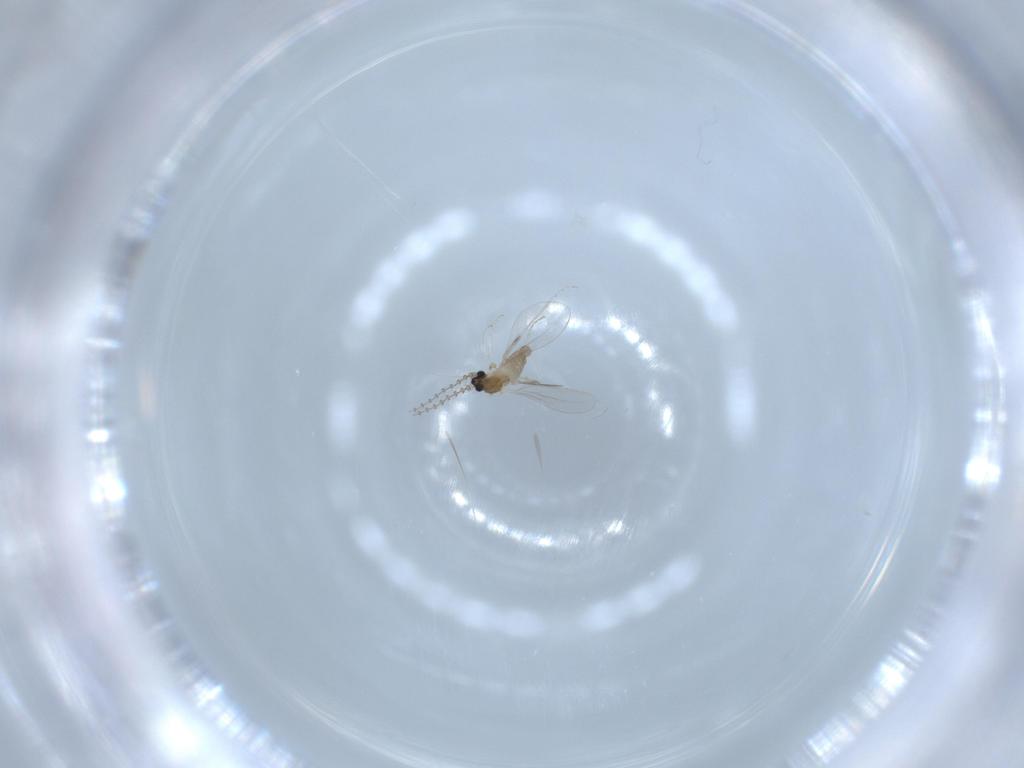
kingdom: Animalia
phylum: Arthropoda
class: Insecta
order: Diptera
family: Cecidomyiidae
